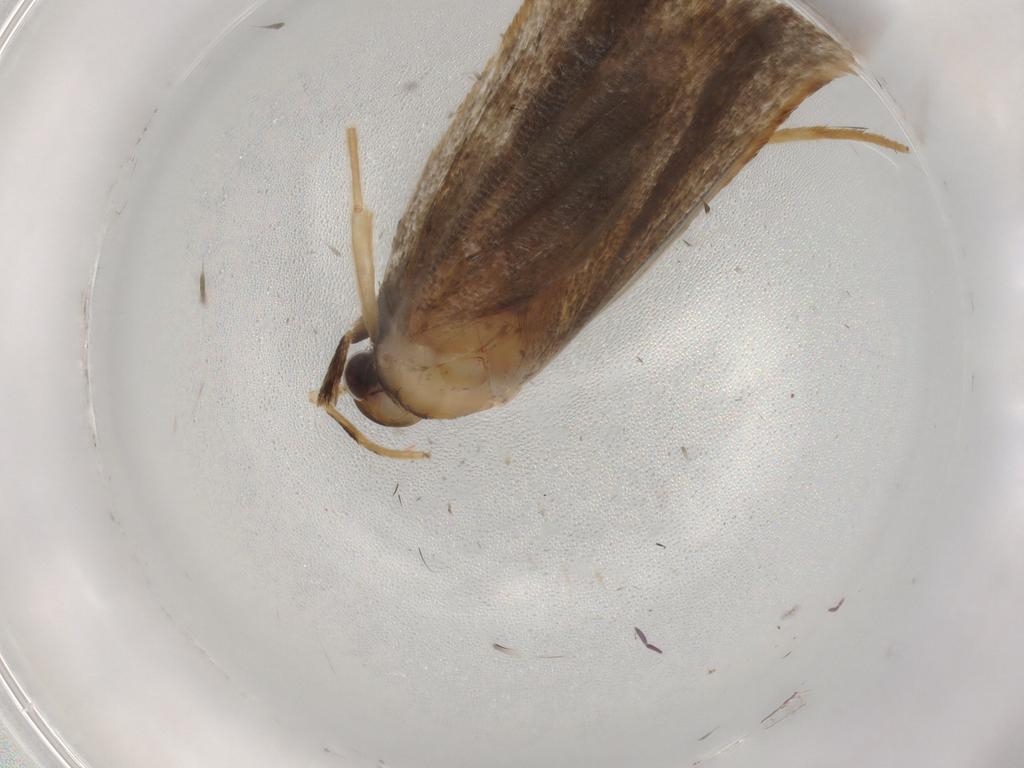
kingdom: Animalia
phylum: Arthropoda
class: Insecta
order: Lepidoptera
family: Lecithoceridae
